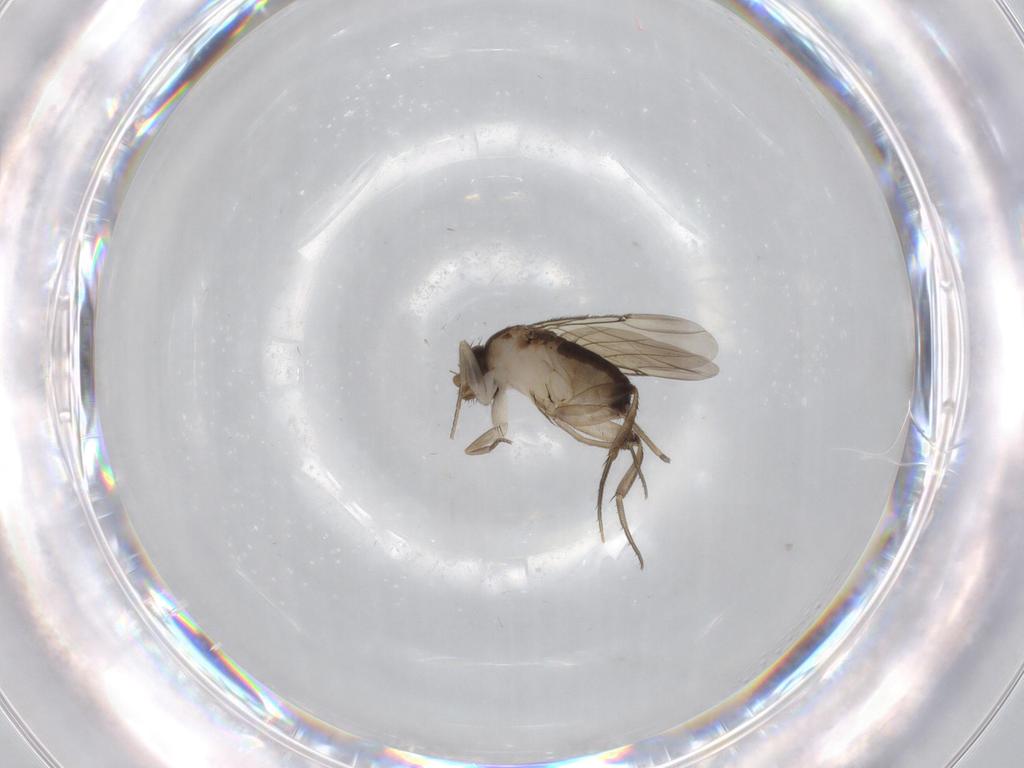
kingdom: Animalia
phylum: Arthropoda
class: Insecta
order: Diptera
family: Phoridae
